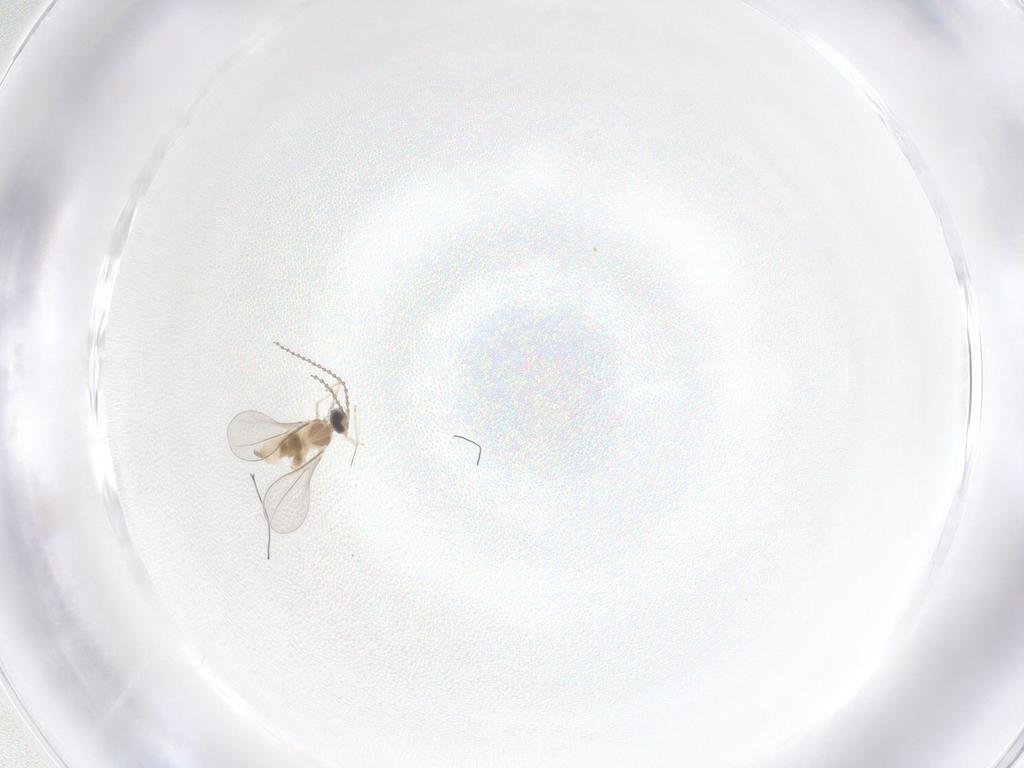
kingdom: Animalia
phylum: Arthropoda
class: Insecta
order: Diptera
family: Cecidomyiidae
